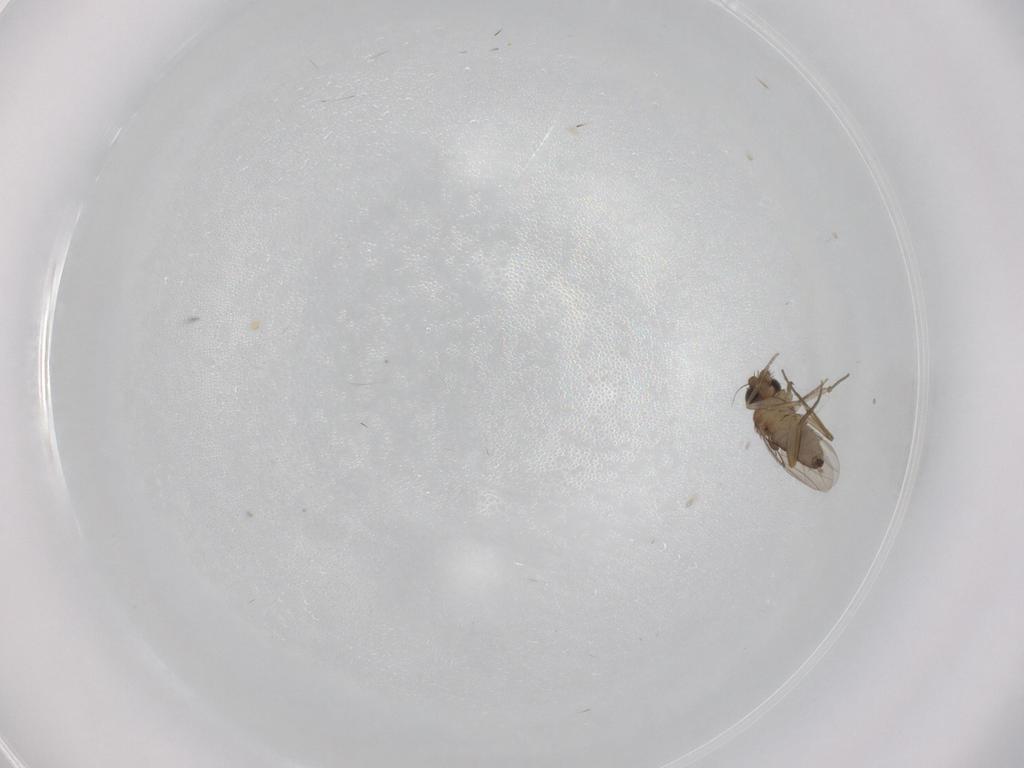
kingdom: Animalia
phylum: Arthropoda
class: Insecta
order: Diptera
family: Phoridae
